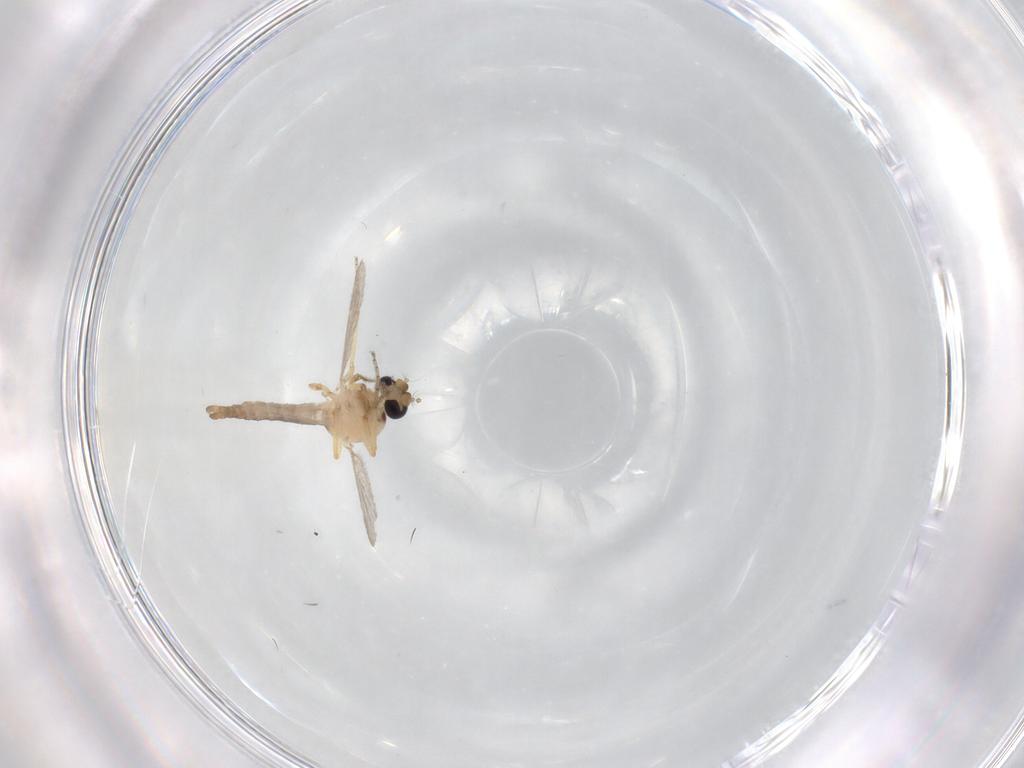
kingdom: Animalia
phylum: Arthropoda
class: Insecta
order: Diptera
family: Ceratopogonidae
